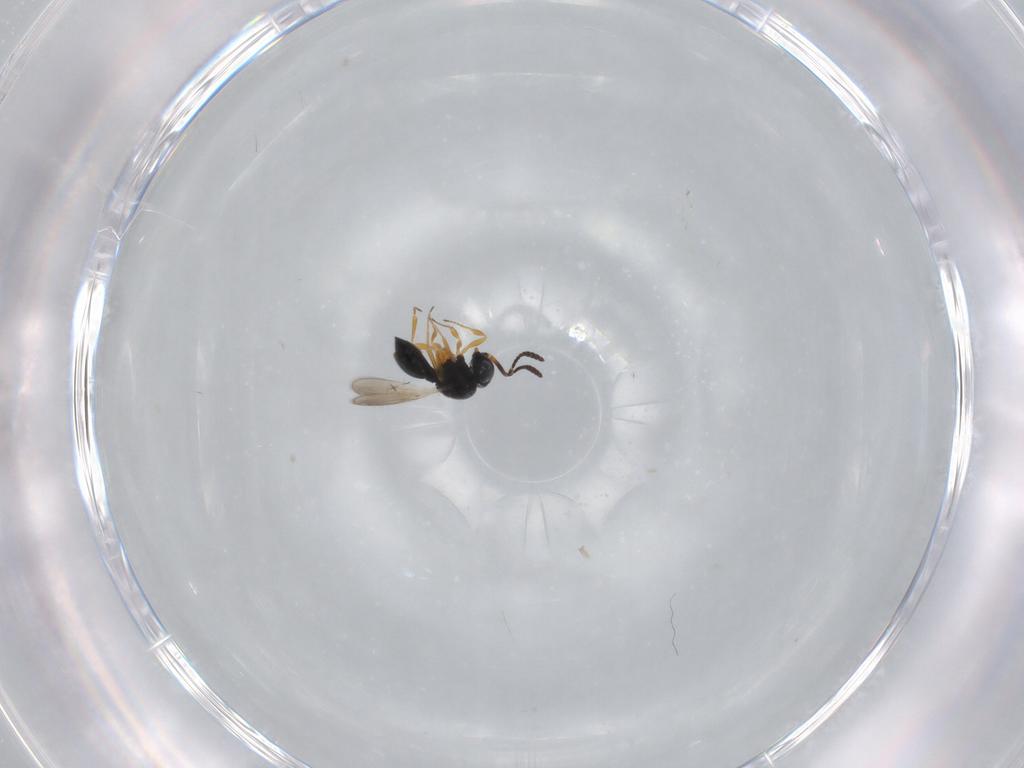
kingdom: Animalia
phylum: Arthropoda
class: Insecta
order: Hymenoptera
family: Scelionidae
